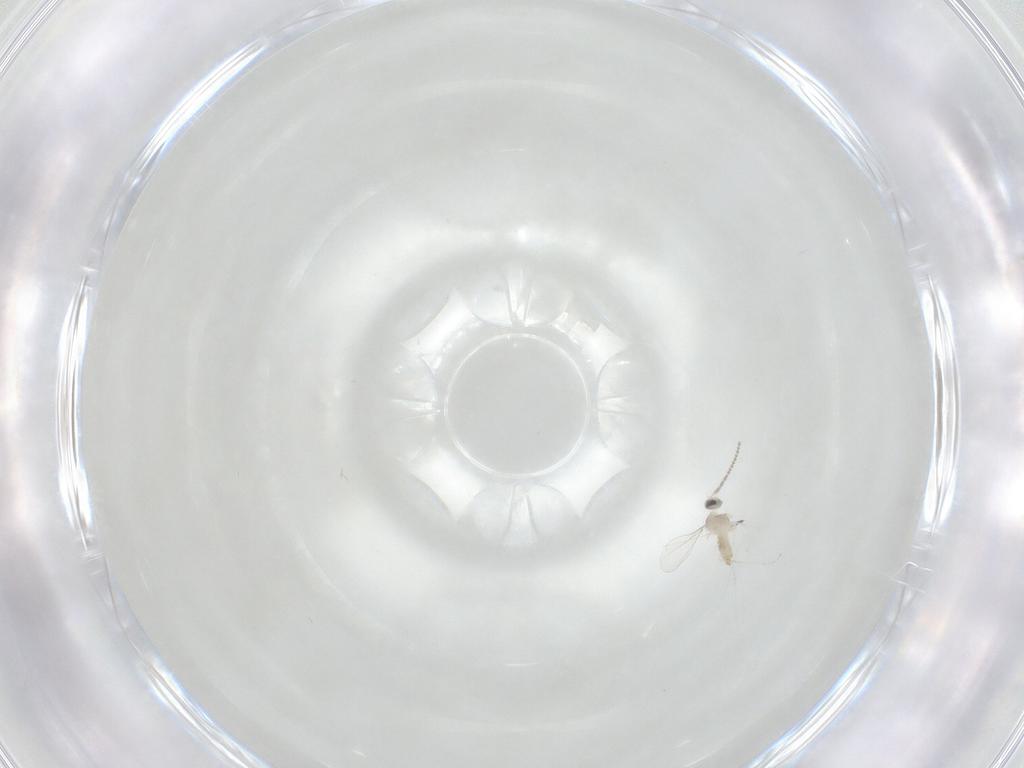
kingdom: Animalia
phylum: Arthropoda
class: Insecta
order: Diptera
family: Cecidomyiidae
